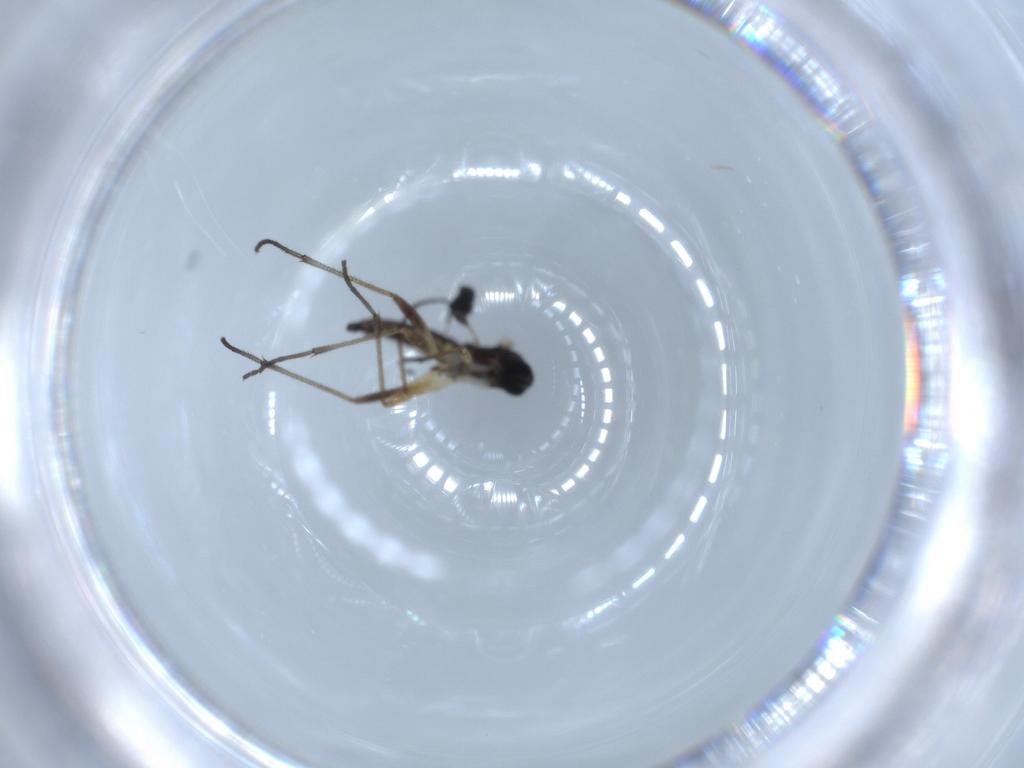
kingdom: Animalia
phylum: Arthropoda
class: Insecta
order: Diptera
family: Sciaridae
